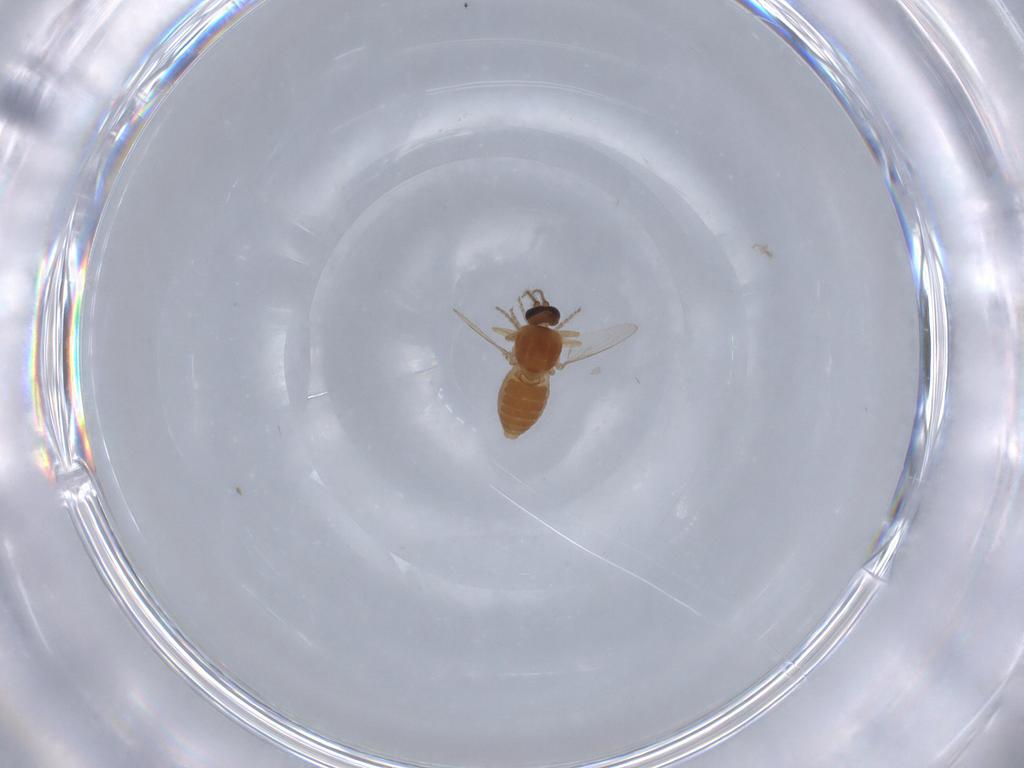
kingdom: Animalia
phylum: Arthropoda
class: Insecta
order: Diptera
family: Ceratopogonidae
